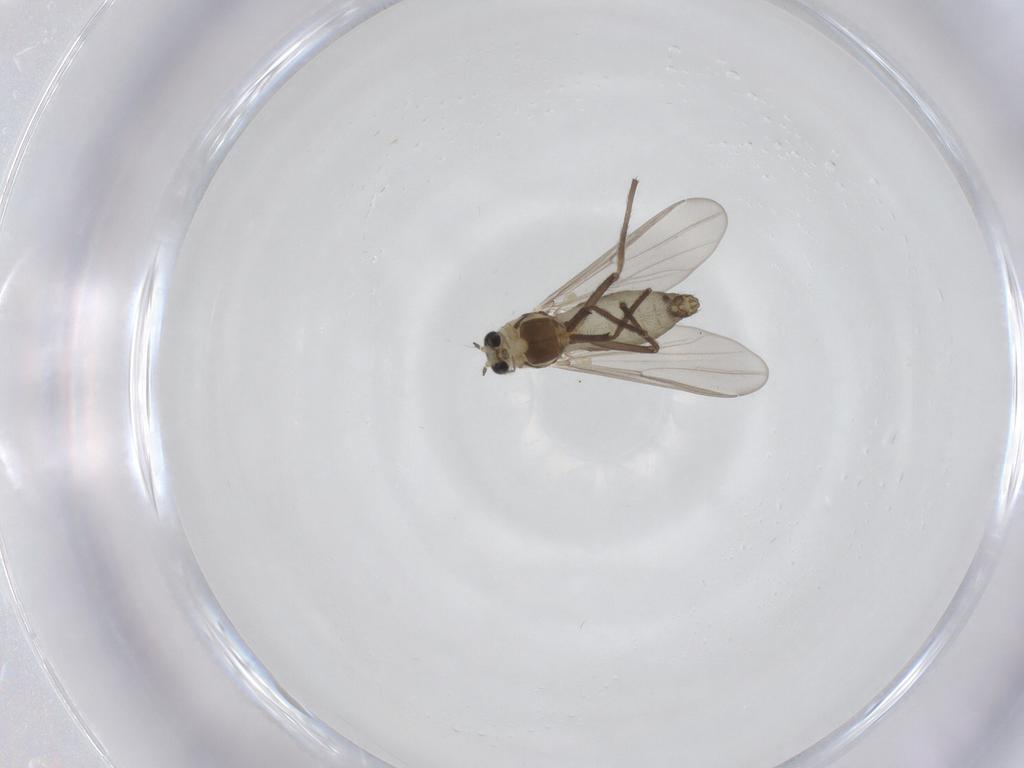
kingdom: Animalia
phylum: Arthropoda
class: Insecta
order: Diptera
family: Chironomidae
